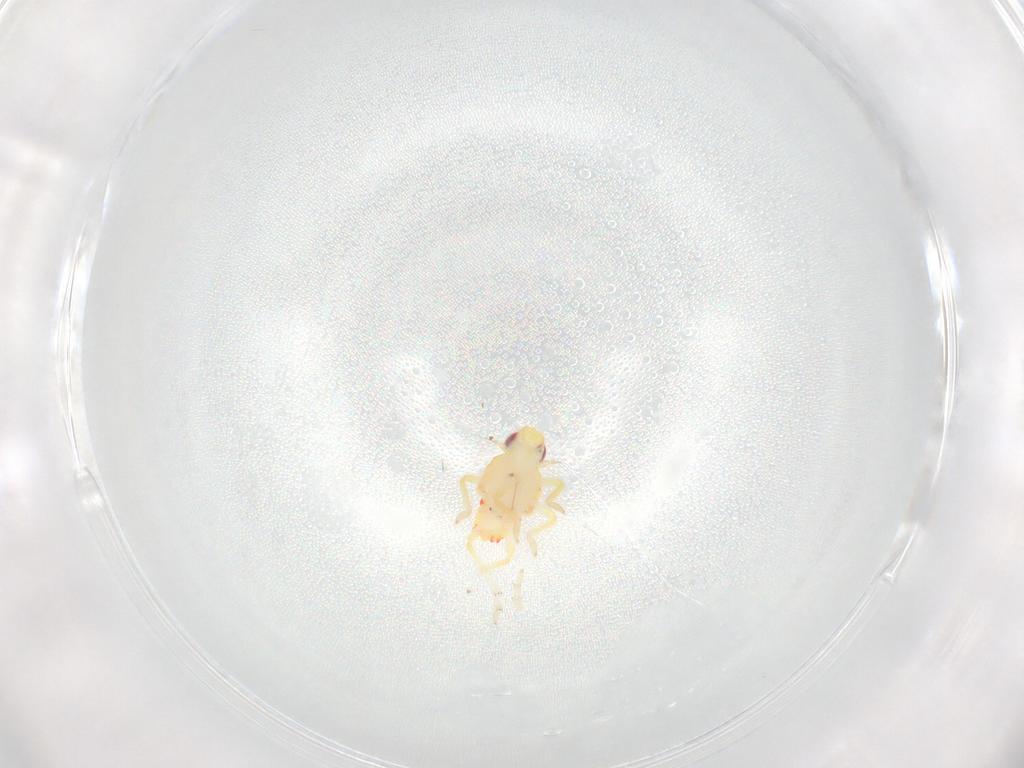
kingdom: Animalia
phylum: Arthropoda
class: Insecta
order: Hemiptera
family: Tropiduchidae
